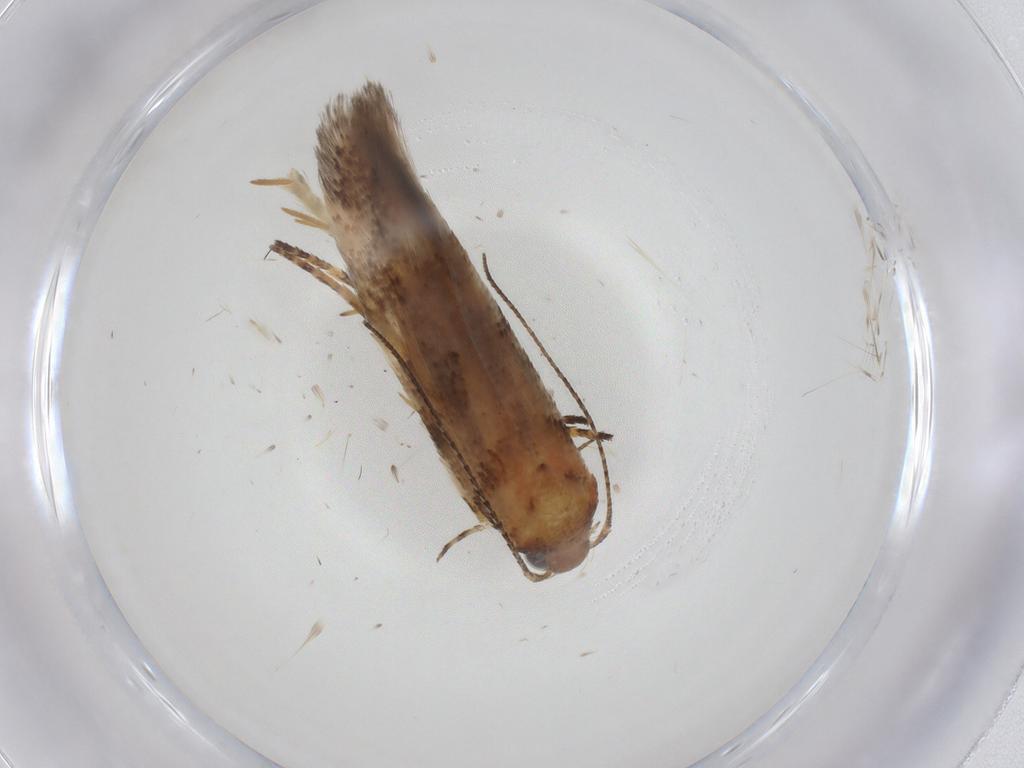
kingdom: Animalia
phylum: Arthropoda
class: Insecta
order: Lepidoptera
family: Gelechiidae
